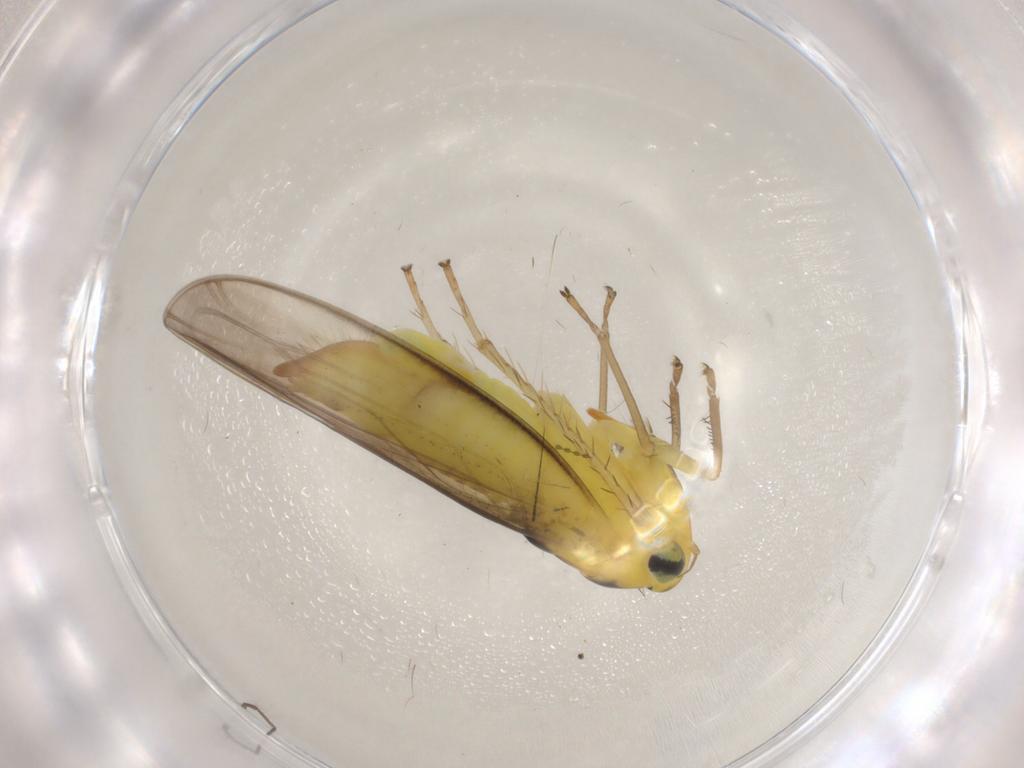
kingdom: Animalia
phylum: Arthropoda
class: Insecta
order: Hemiptera
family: Cicadellidae
